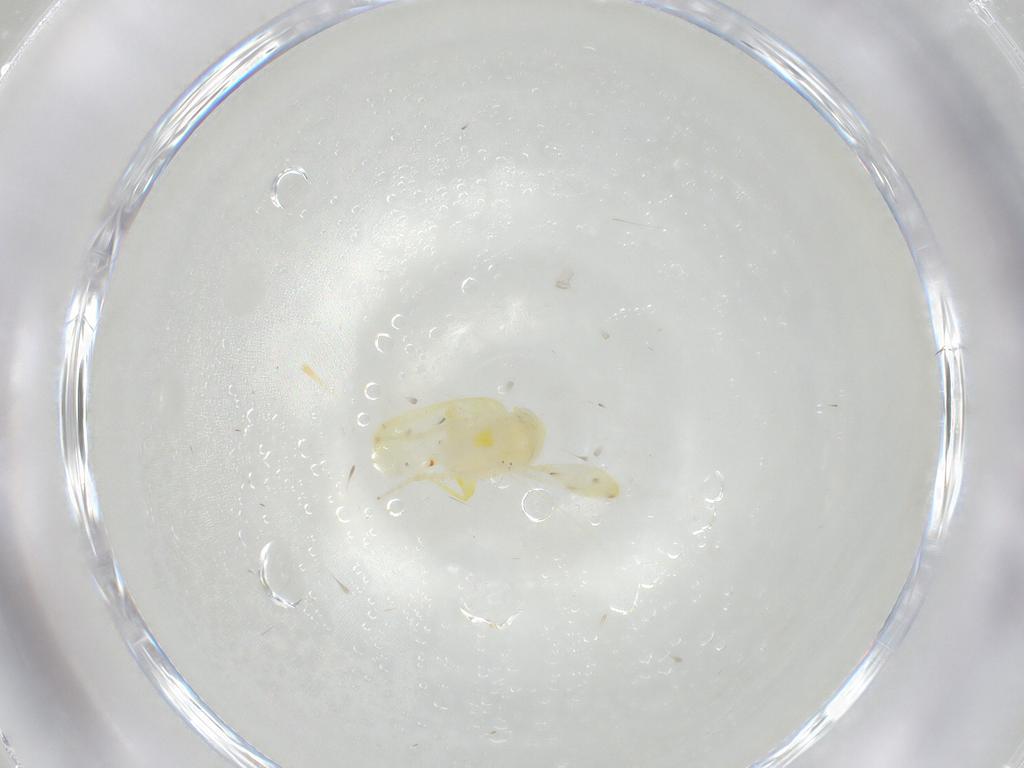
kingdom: Animalia
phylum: Arthropoda
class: Insecta
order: Hemiptera
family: Cicadellidae
